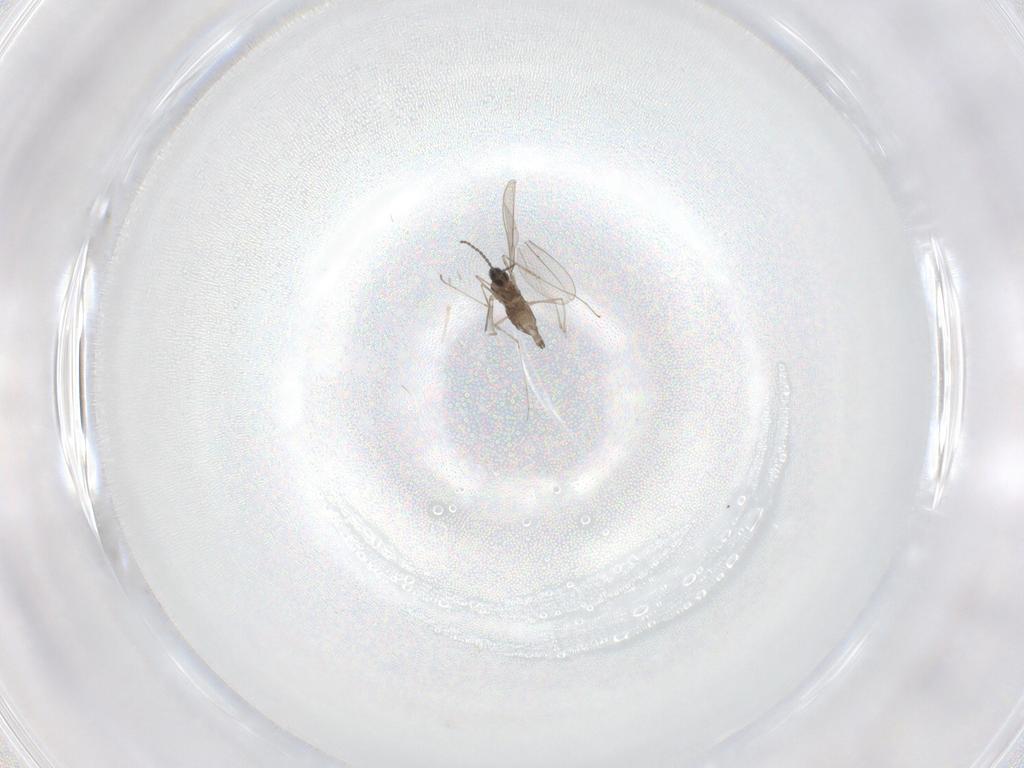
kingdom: Animalia
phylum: Arthropoda
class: Insecta
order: Diptera
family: Cecidomyiidae
